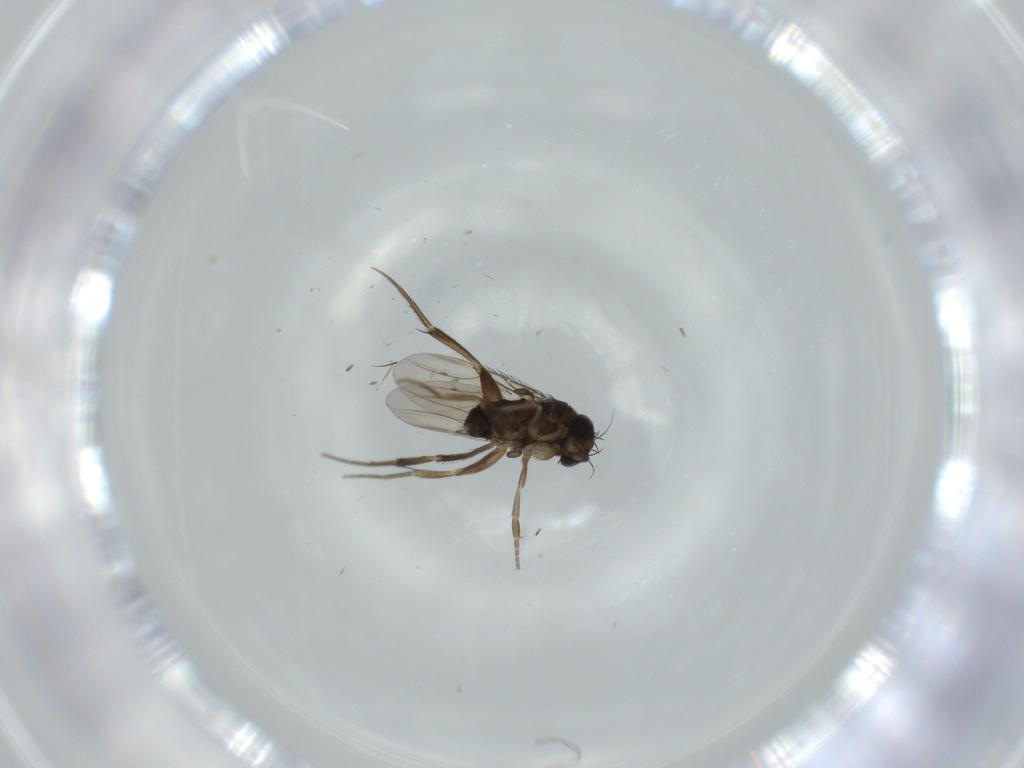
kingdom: Animalia
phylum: Arthropoda
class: Insecta
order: Diptera
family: Phoridae
